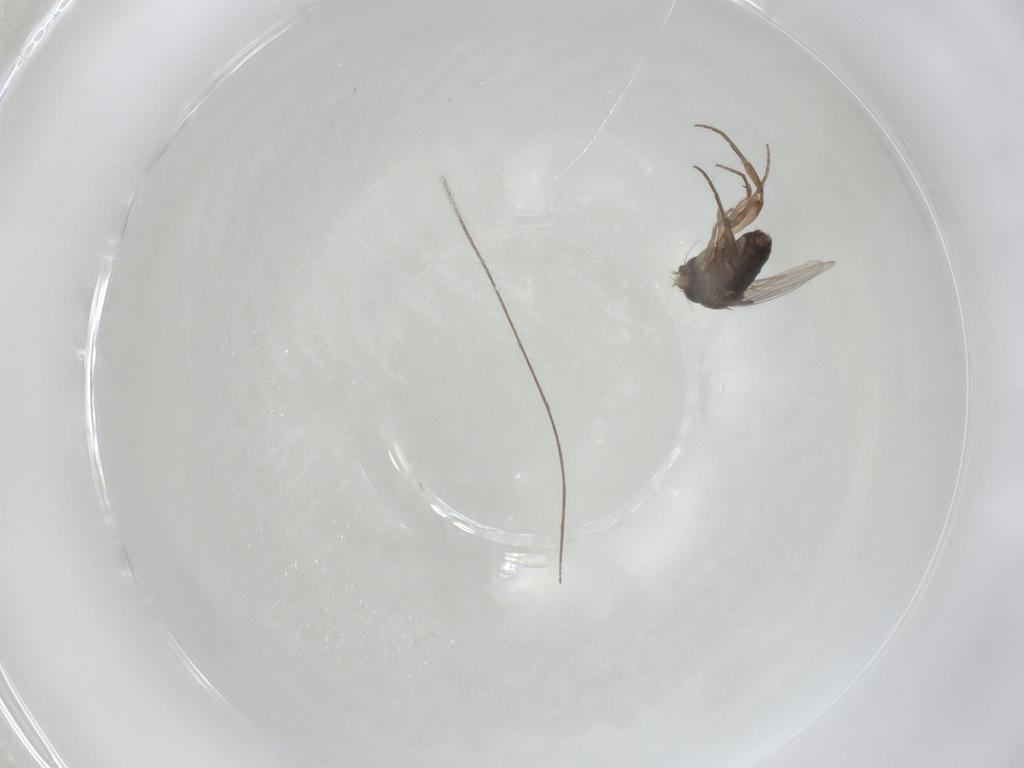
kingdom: Animalia
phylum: Arthropoda
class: Insecta
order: Diptera
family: Phoridae
